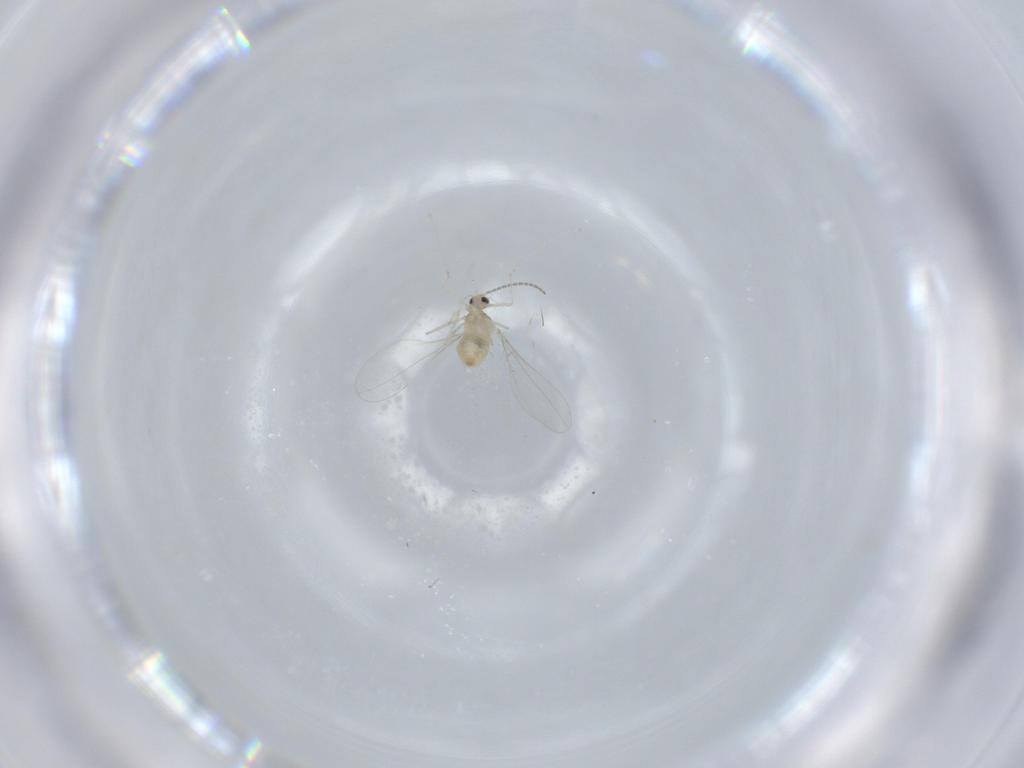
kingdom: Animalia
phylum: Arthropoda
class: Insecta
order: Diptera
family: Cecidomyiidae
